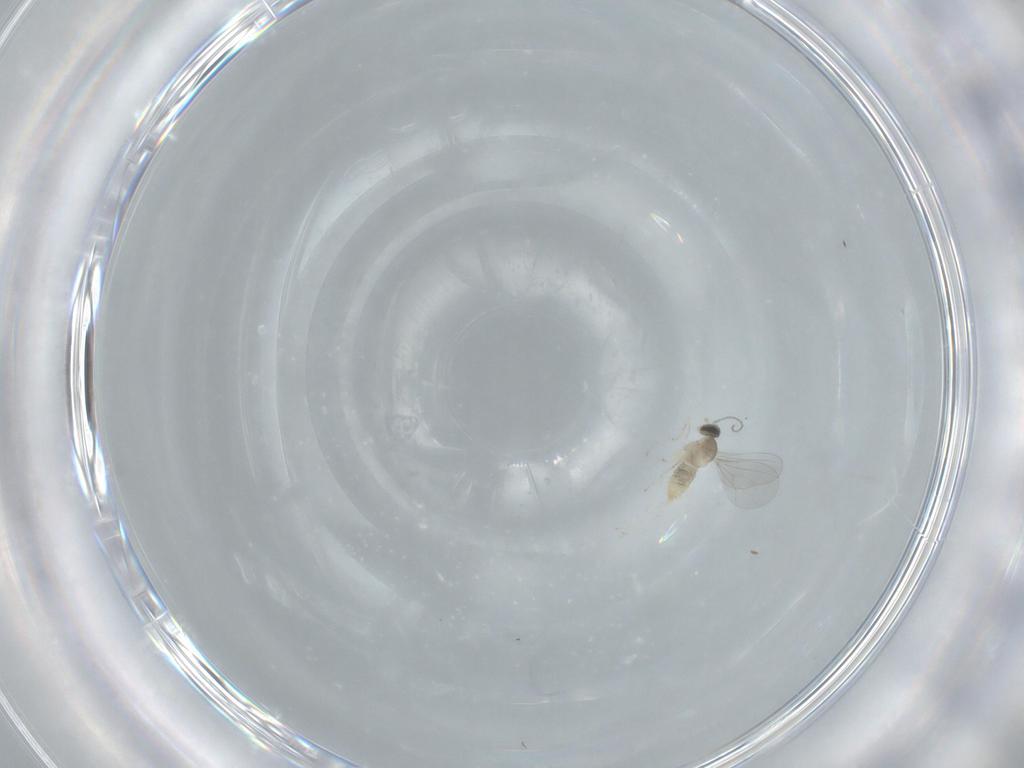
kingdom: Animalia
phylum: Arthropoda
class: Insecta
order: Diptera
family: Cecidomyiidae
